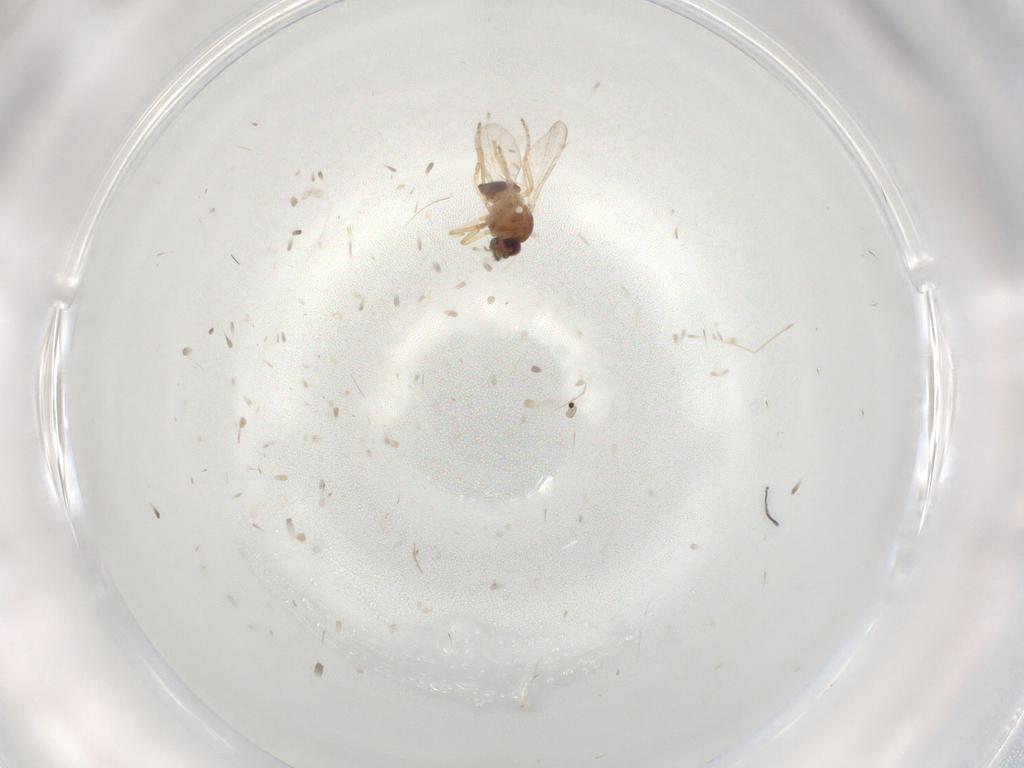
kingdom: Animalia
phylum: Arthropoda
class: Insecta
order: Diptera
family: Ceratopogonidae
